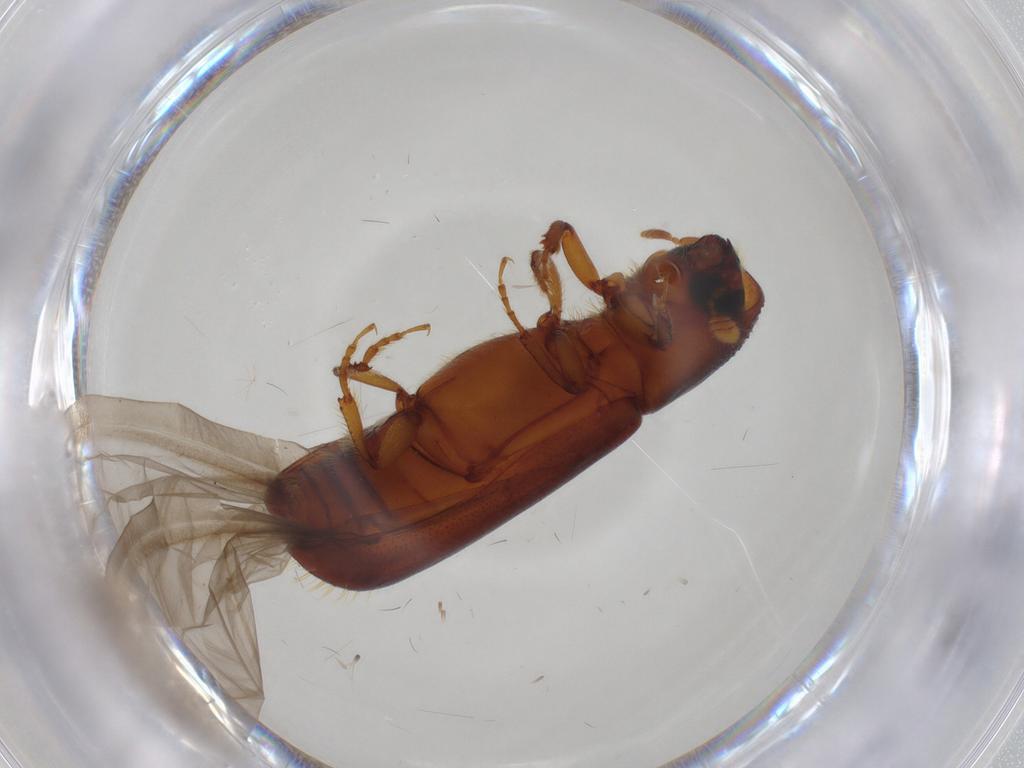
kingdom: Animalia
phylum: Arthropoda
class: Insecta
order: Coleoptera
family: Curculionidae
